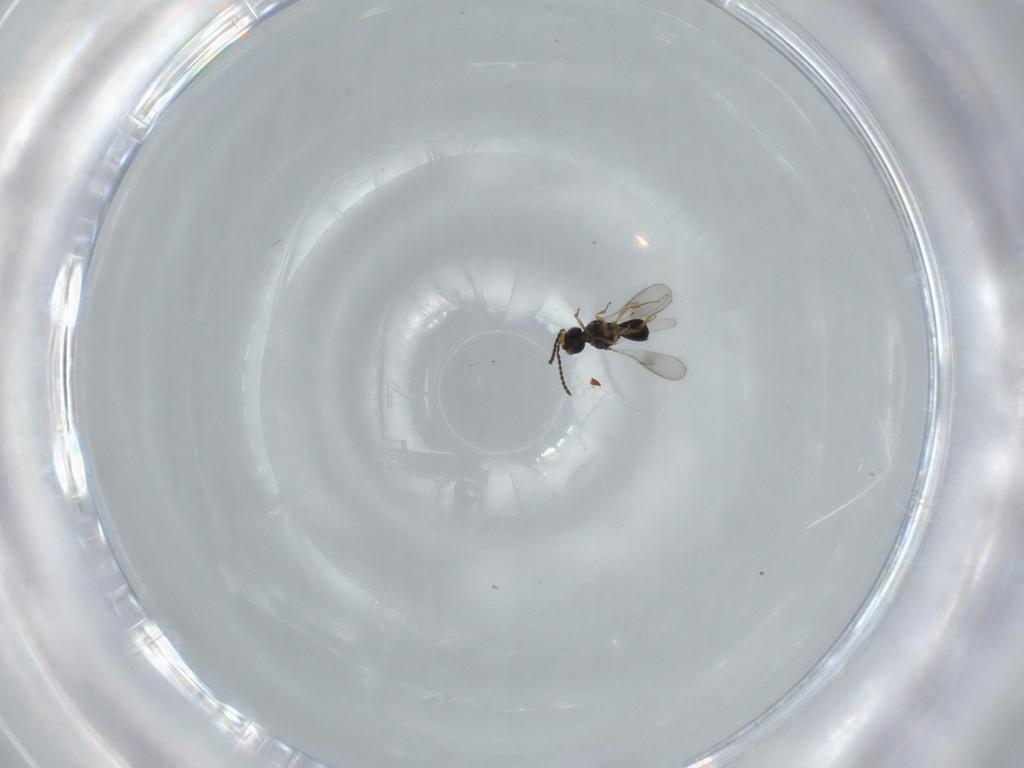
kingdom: Animalia
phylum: Arthropoda
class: Insecta
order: Hymenoptera
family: Scelionidae
